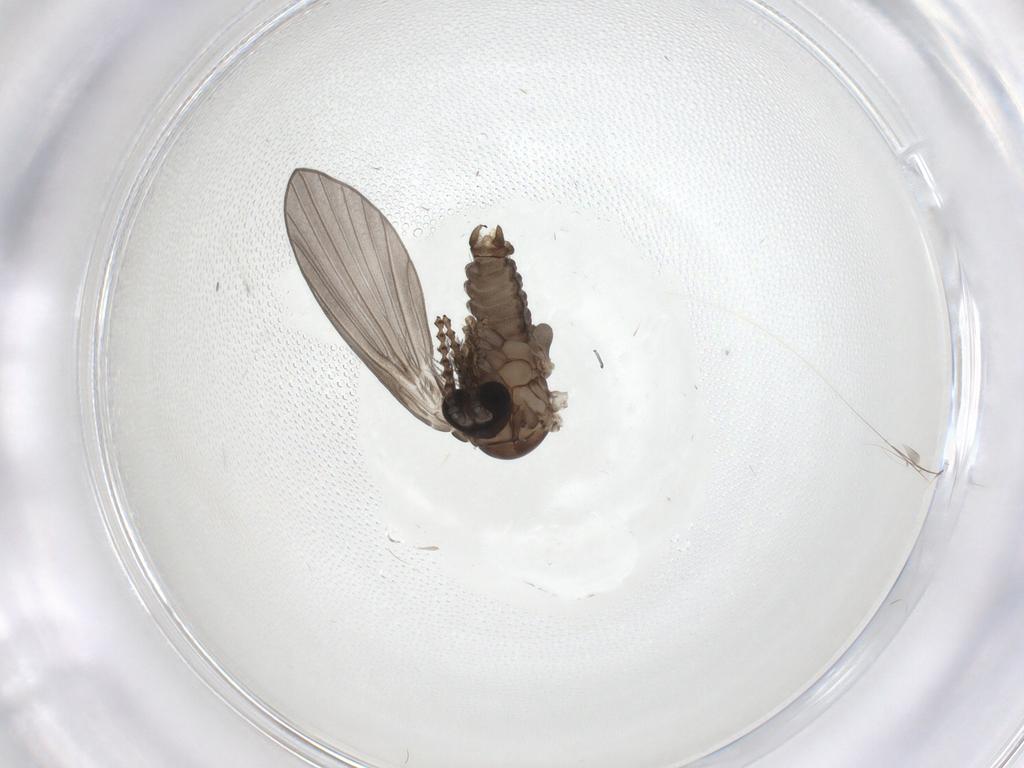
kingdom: Animalia
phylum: Arthropoda
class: Insecta
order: Diptera
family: Psychodidae
